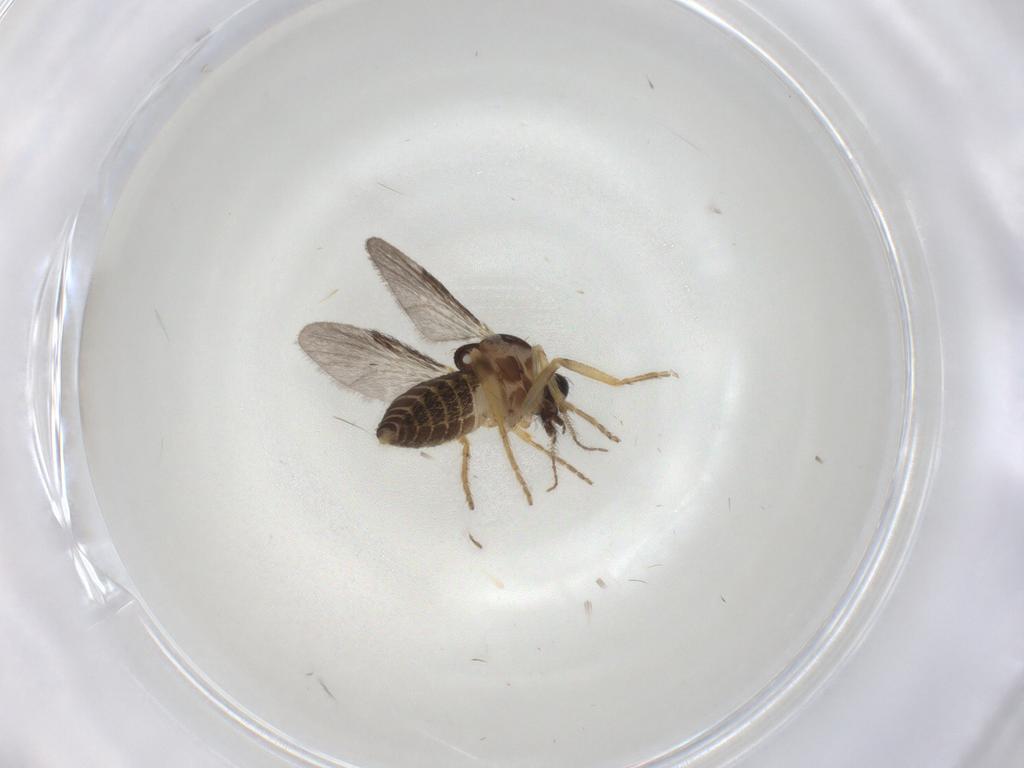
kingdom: Animalia
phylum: Arthropoda
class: Insecta
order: Diptera
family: Ceratopogonidae
